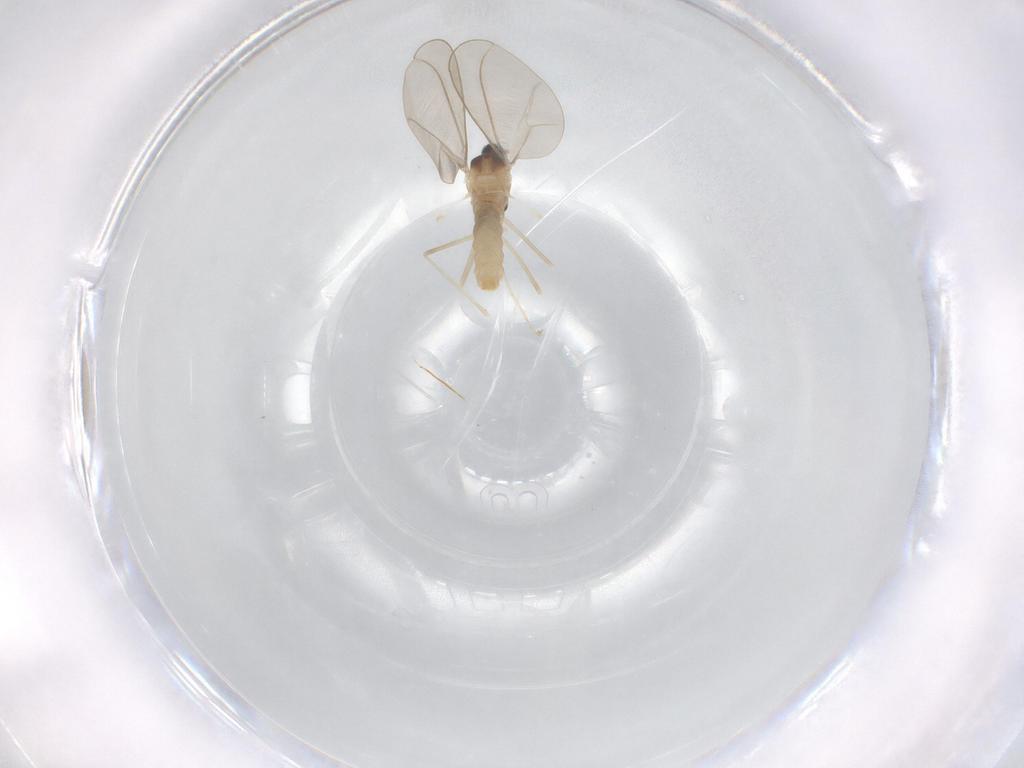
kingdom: Animalia
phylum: Arthropoda
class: Insecta
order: Diptera
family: Cecidomyiidae
